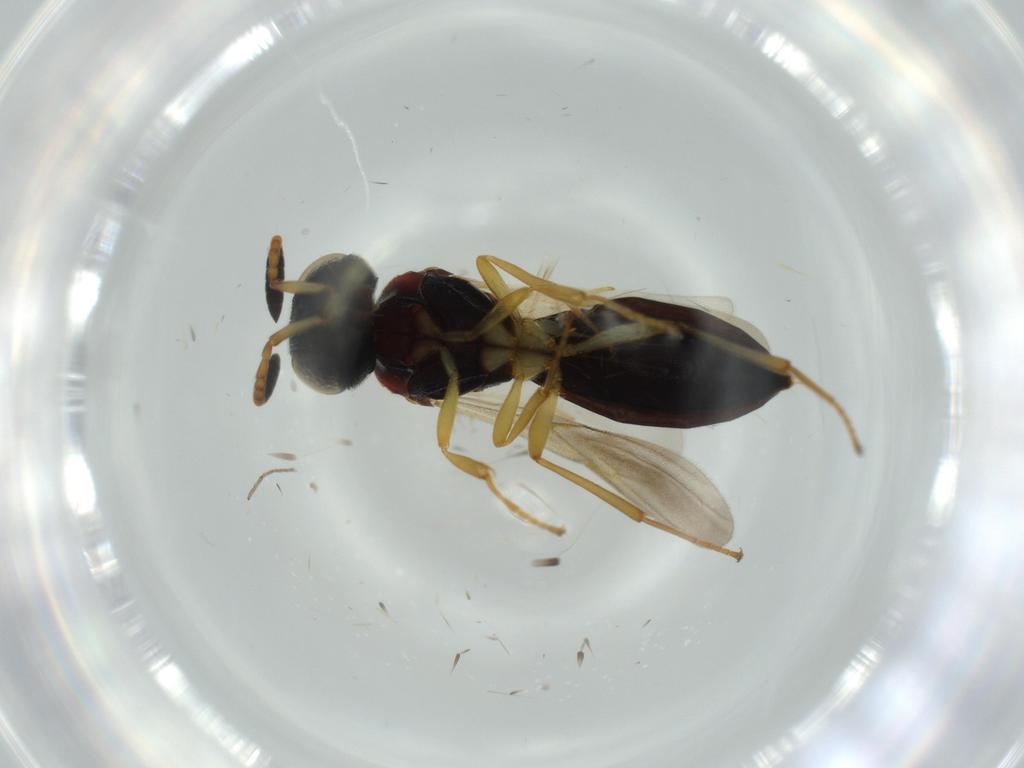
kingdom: Animalia
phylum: Arthropoda
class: Insecta
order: Hymenoptera
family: Scelionidae
